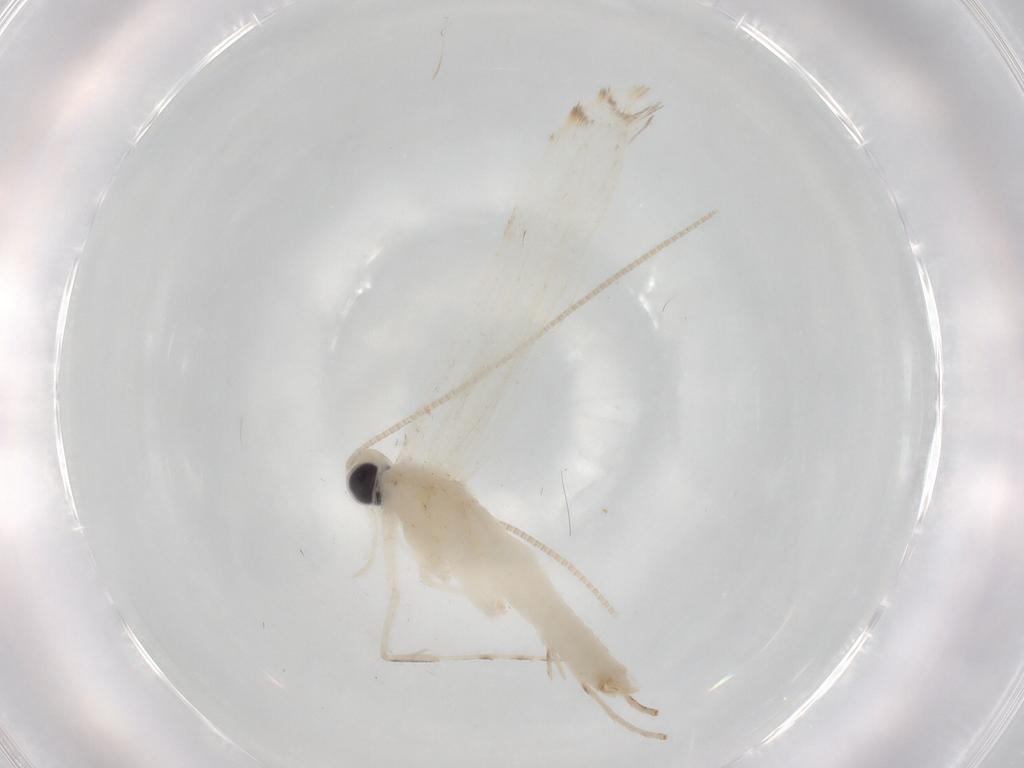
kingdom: Animalia
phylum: Arthropoda
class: Insecta
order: Lepidoptera
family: Gracillariidae
